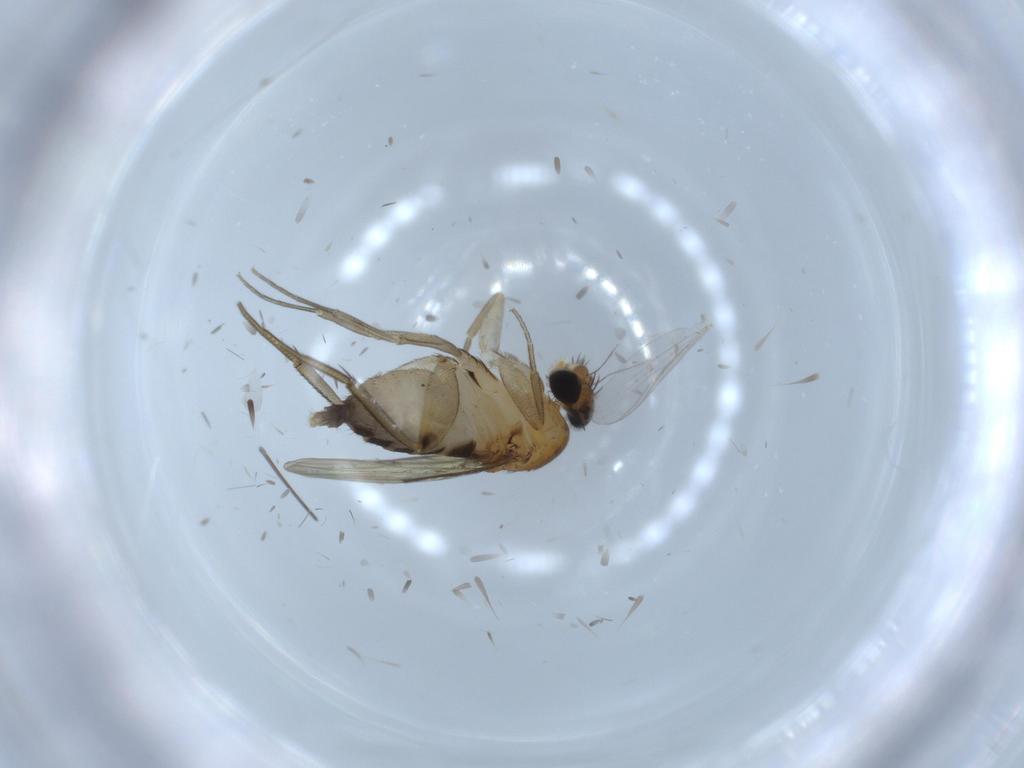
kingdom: Animalia
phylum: Arthropoda
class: Insecta
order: Diptera
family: Phoridae
